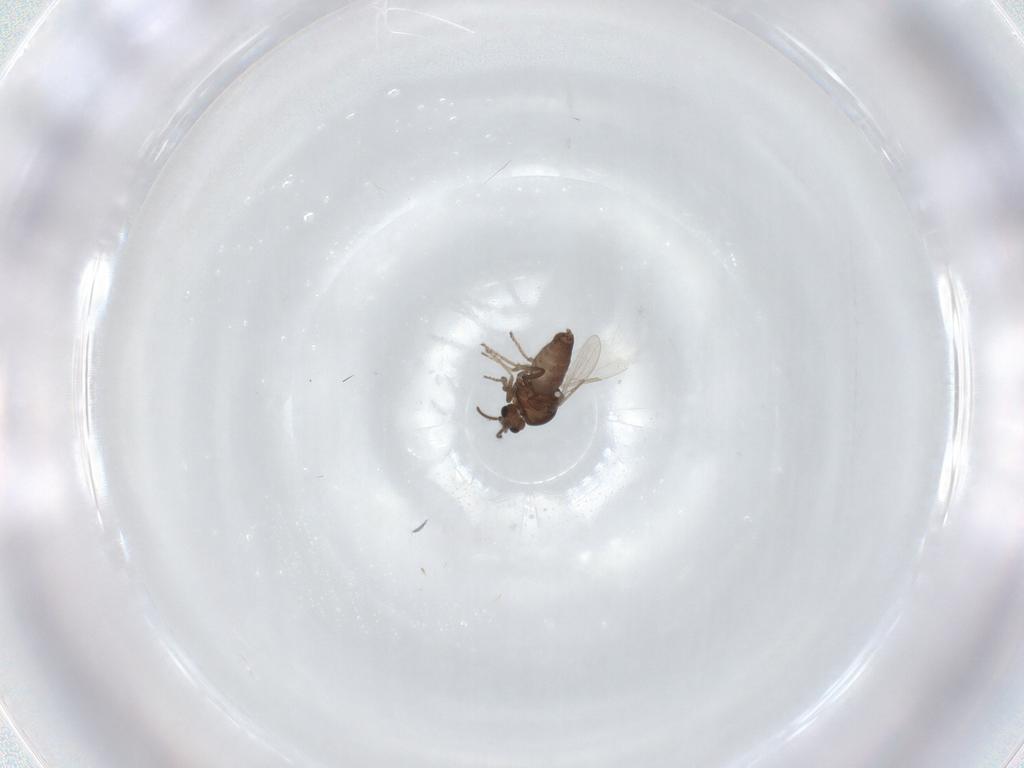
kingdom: Animalia
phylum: Arthropoda
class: Insecta
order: Diptera
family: Ceratopogonidae
